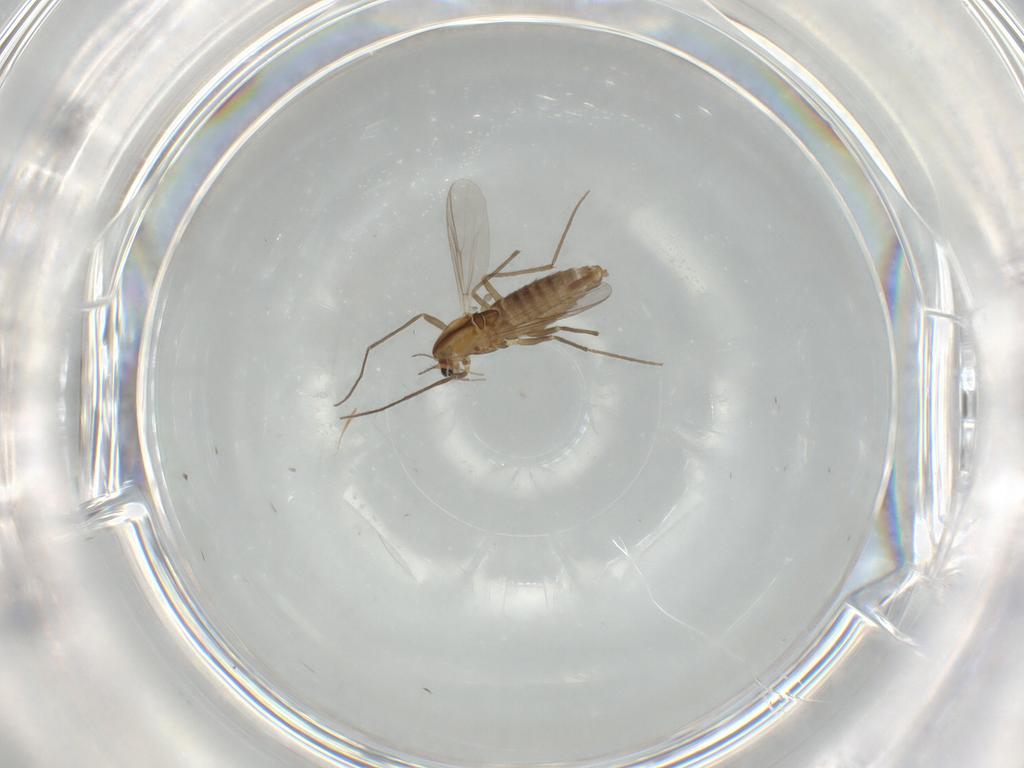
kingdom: Animalia
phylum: Arthropoda
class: Insecta
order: Diptera
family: Chironomidae
